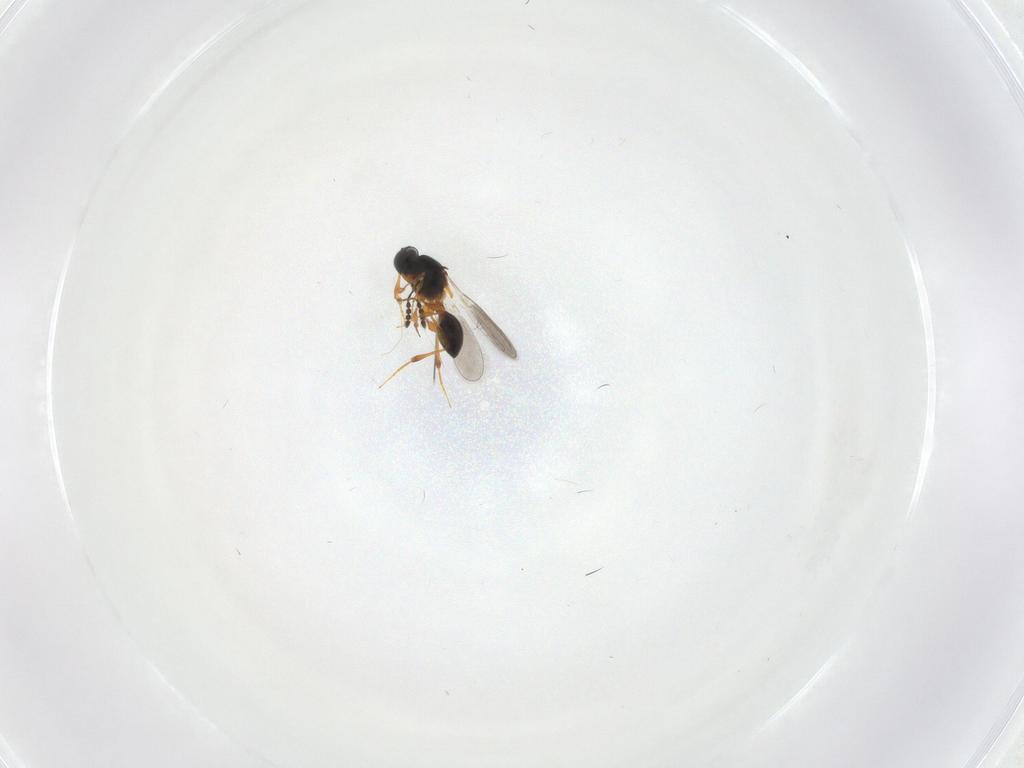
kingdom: Animalia
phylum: Arthropoda
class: Insecta
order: Hymenoptera
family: Platygastridae
